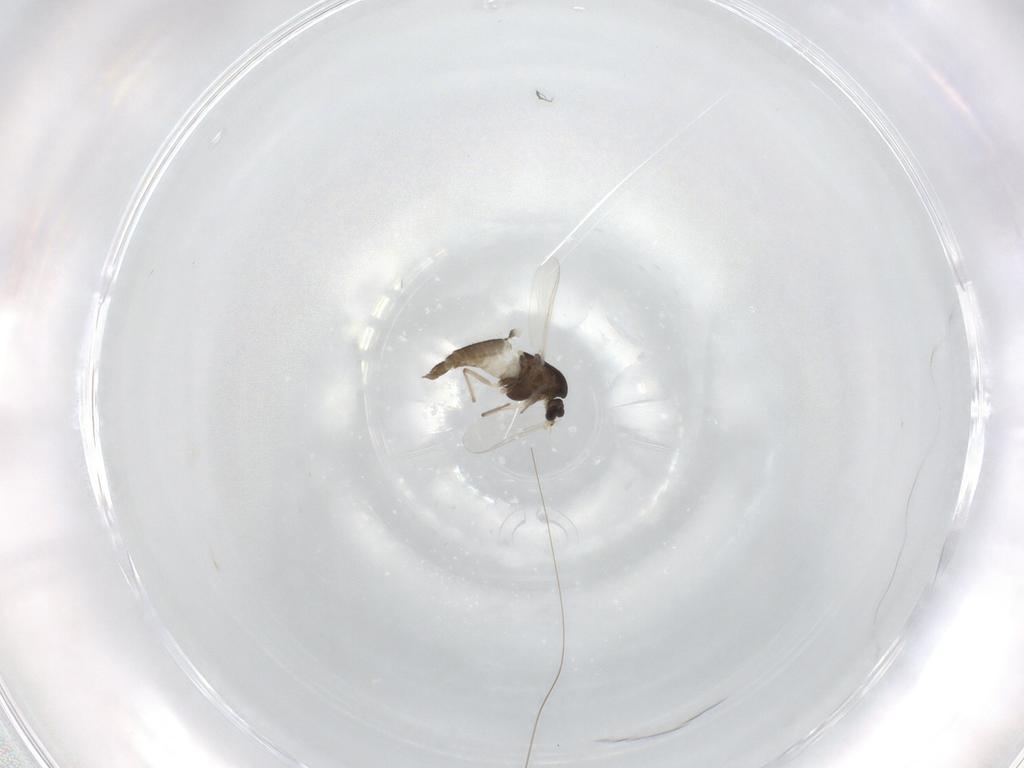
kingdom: Animalia
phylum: Arthropoda
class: Insecta
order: Diptera
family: Chironomidae
